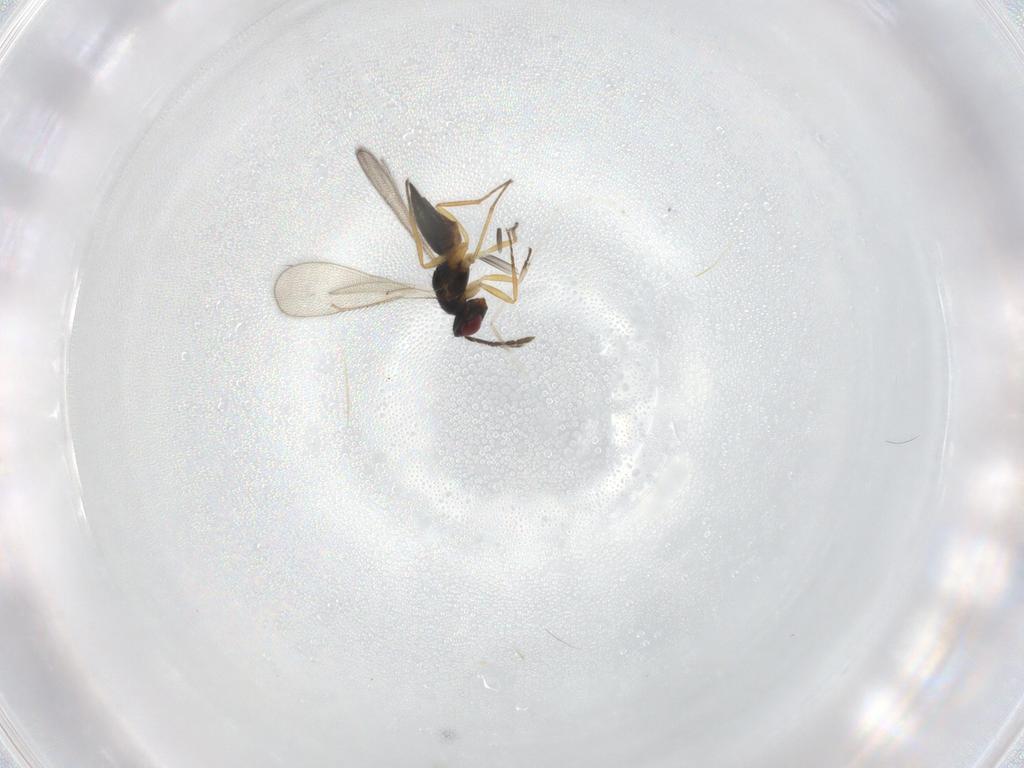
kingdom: Animalia
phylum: Arthropoda
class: Insecta
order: Hymenoptera
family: Eulophidae
